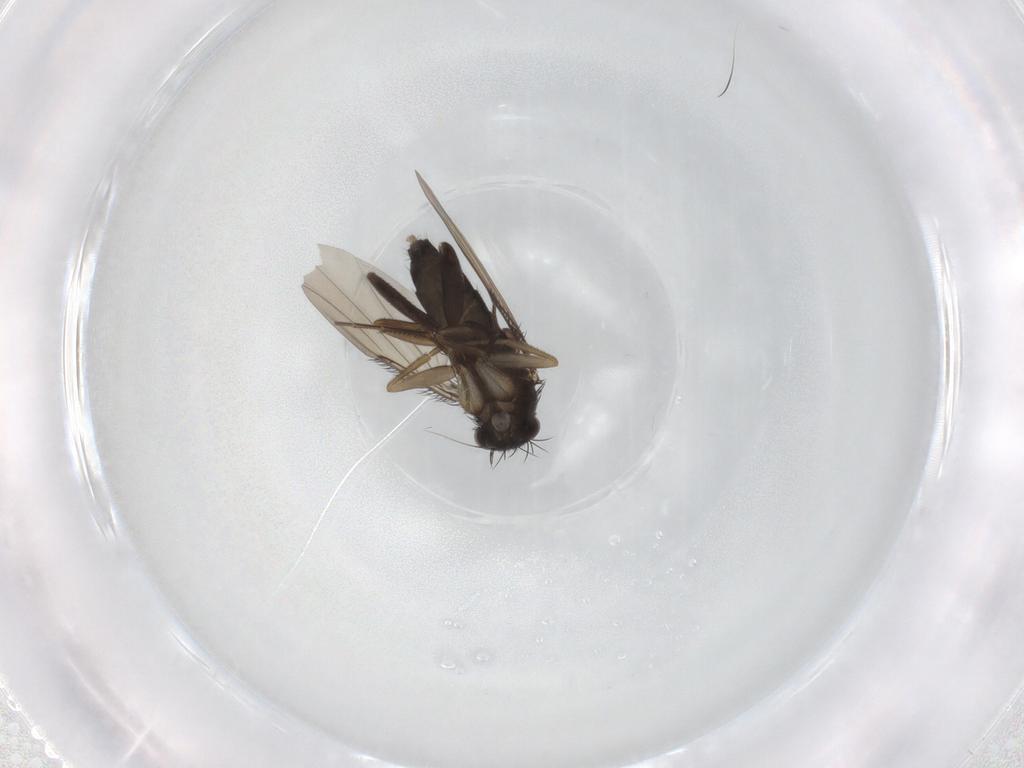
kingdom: Animalia
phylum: Arthropoda
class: Insecta
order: Diptera
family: Phoridae
